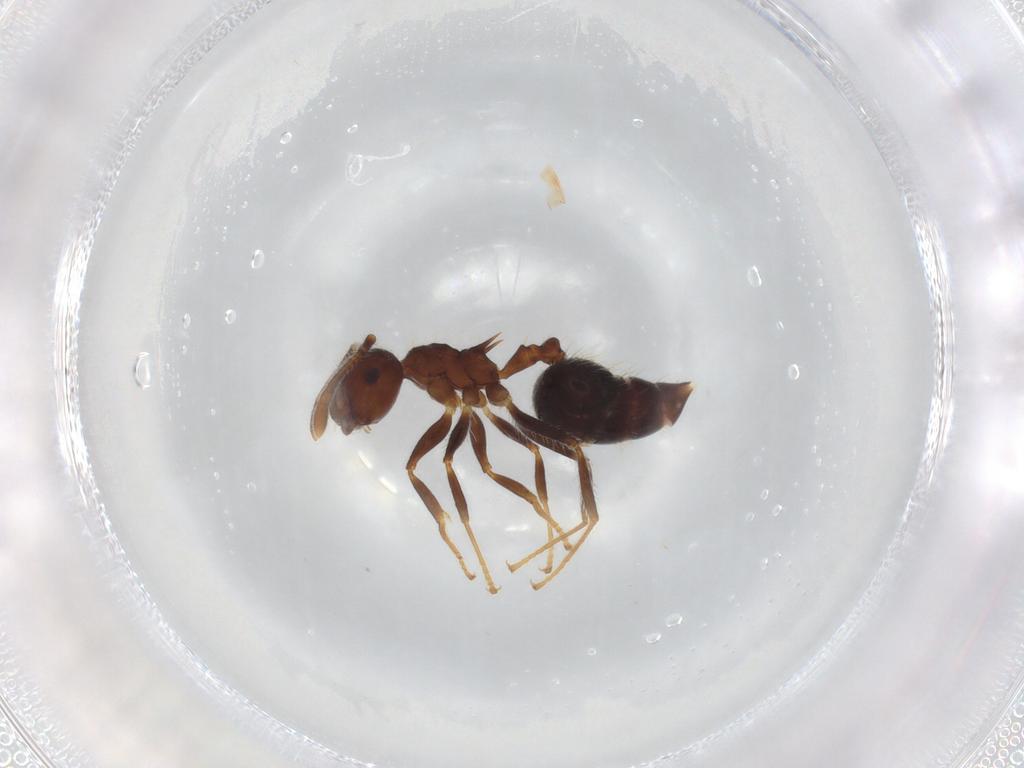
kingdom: Animalia
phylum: Arthropoda
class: Insecta
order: Hymenoptera
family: Formicidae
